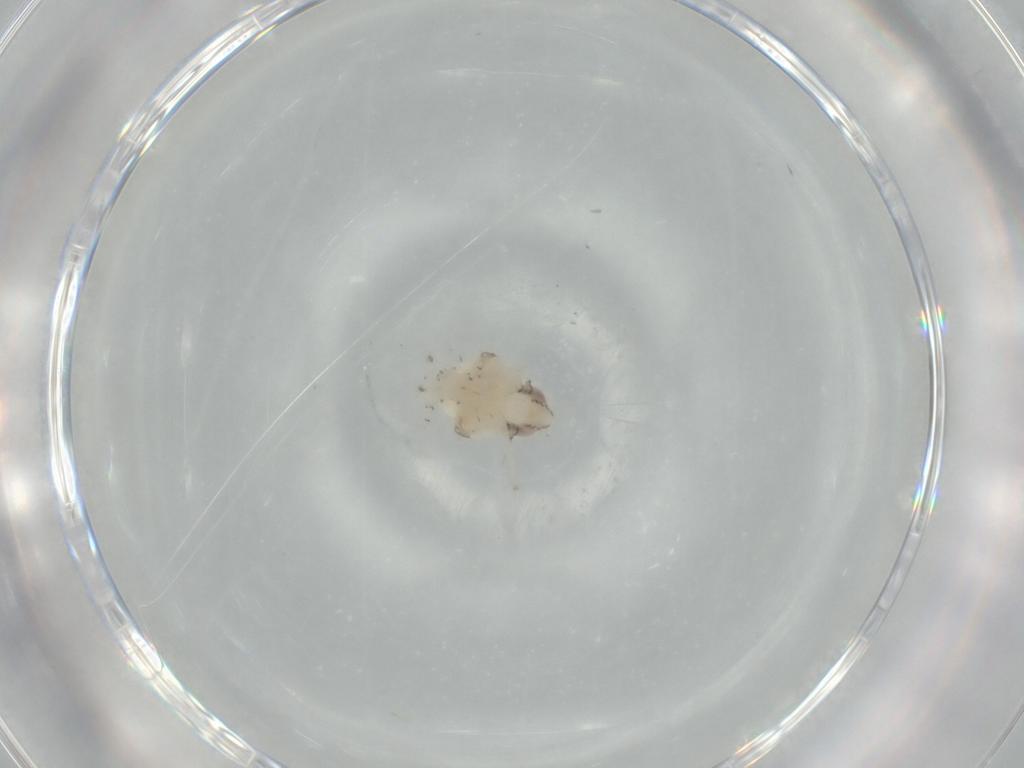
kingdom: Animalia
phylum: Arthropoda
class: Insecta
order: Hemiptera
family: Nogodinidae
